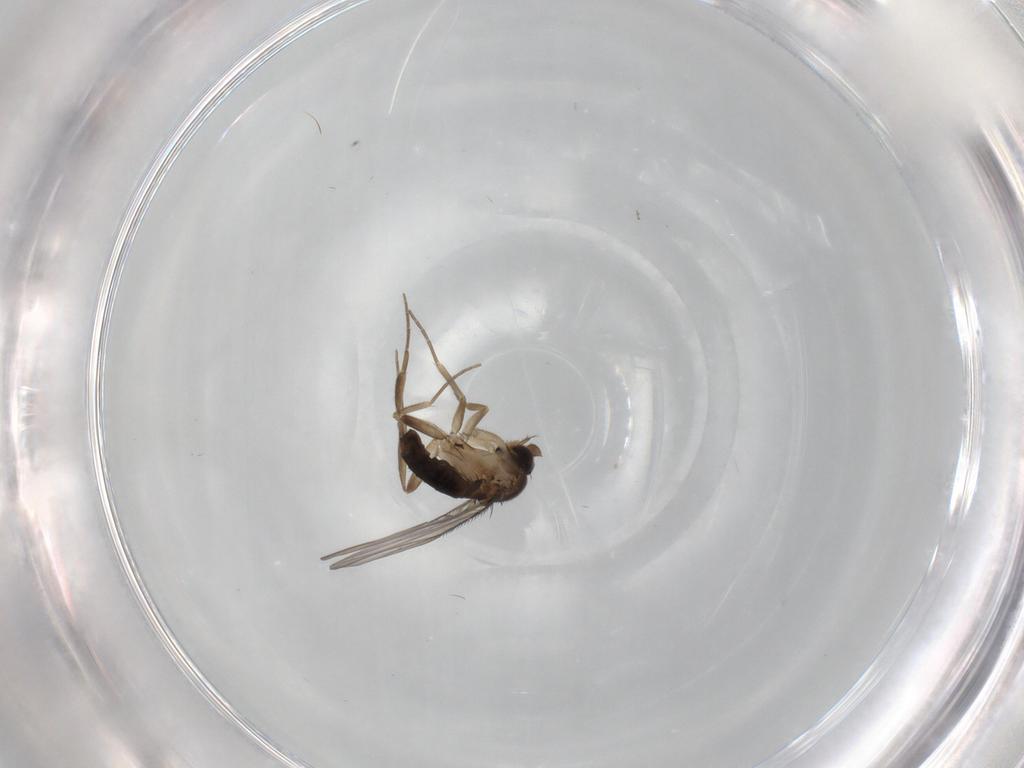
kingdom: Animalia
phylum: Arthropoda
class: Insecta
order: Diptera
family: Phoridae
